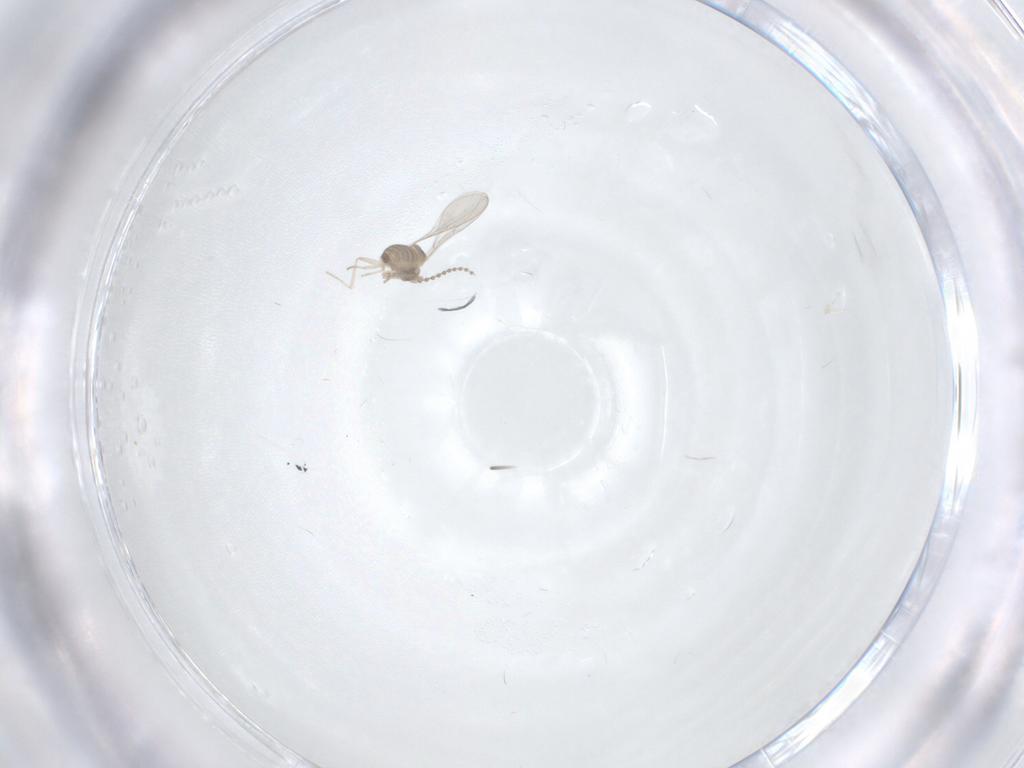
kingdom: Animalia
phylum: Arthropoda
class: Insecta
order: Diptera
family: Cecidomyiidae
